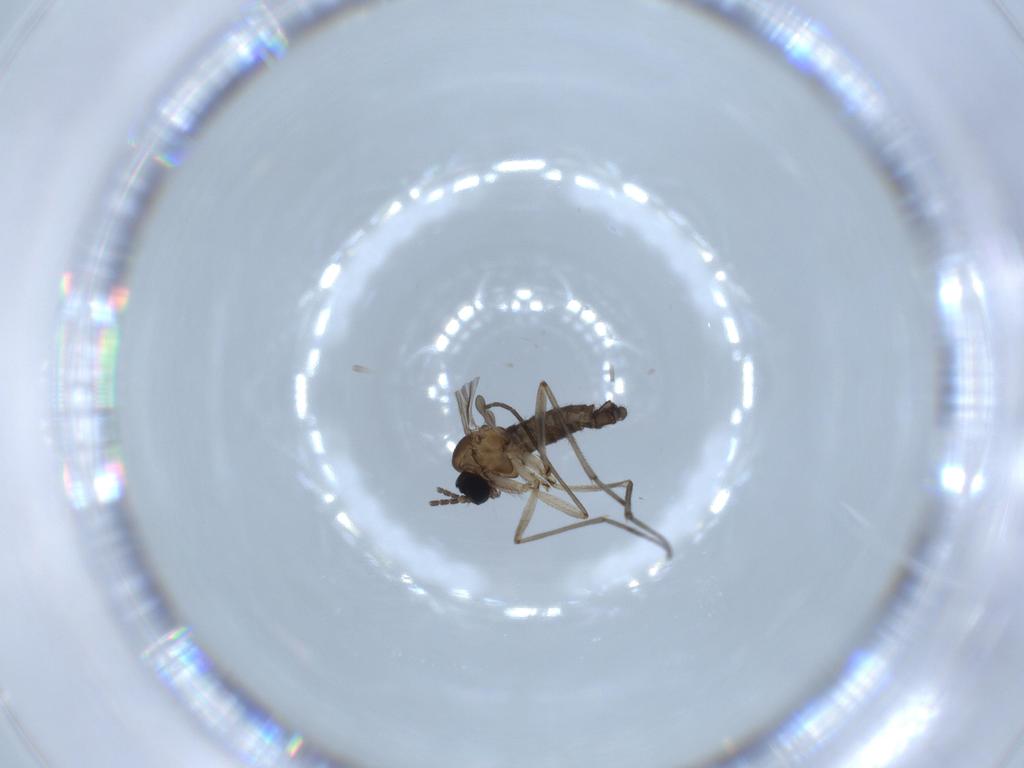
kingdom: Animalia
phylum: Arthropoda
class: Insecta
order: Diptera
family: Sciaridae
